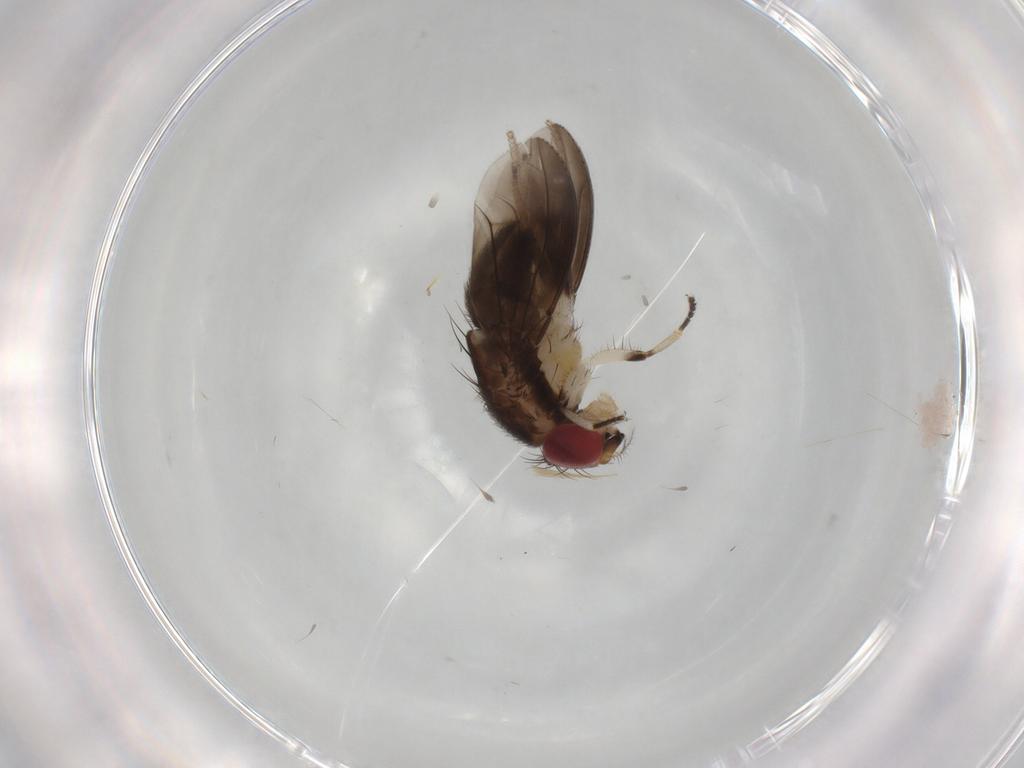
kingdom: Animalia
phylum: Arthropoda
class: Insecta
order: Diptera
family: Drosophilidae
